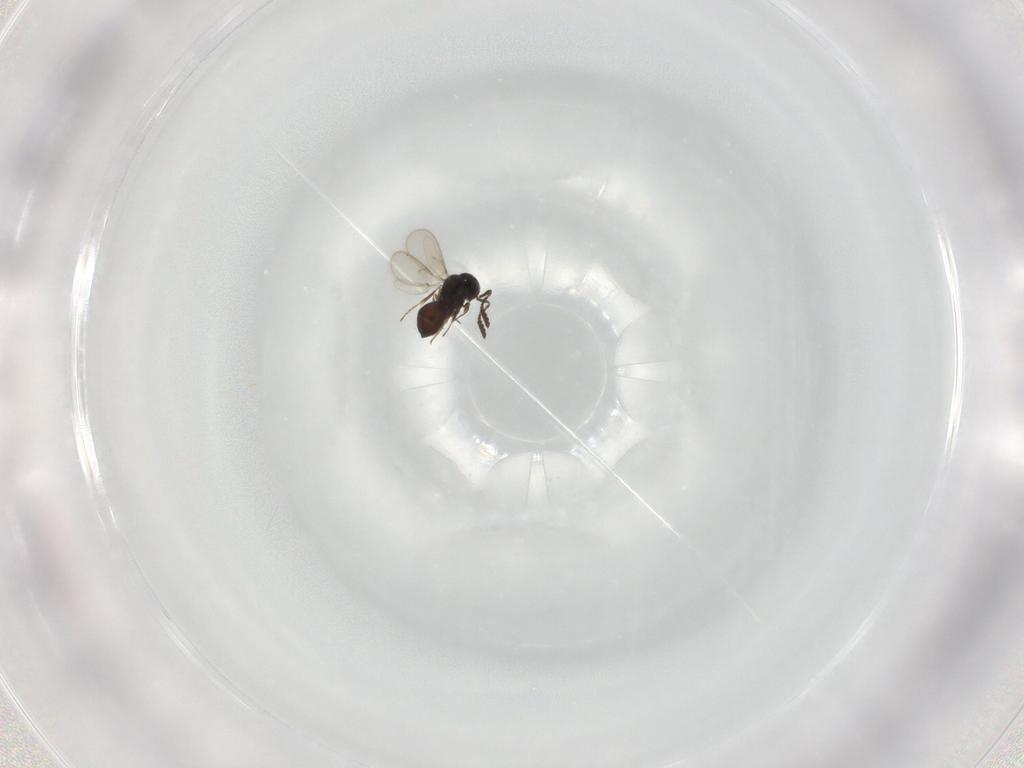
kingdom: Animalia
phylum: Arthropoda
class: Insecta
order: Hymenoptera
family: Scelionidae
